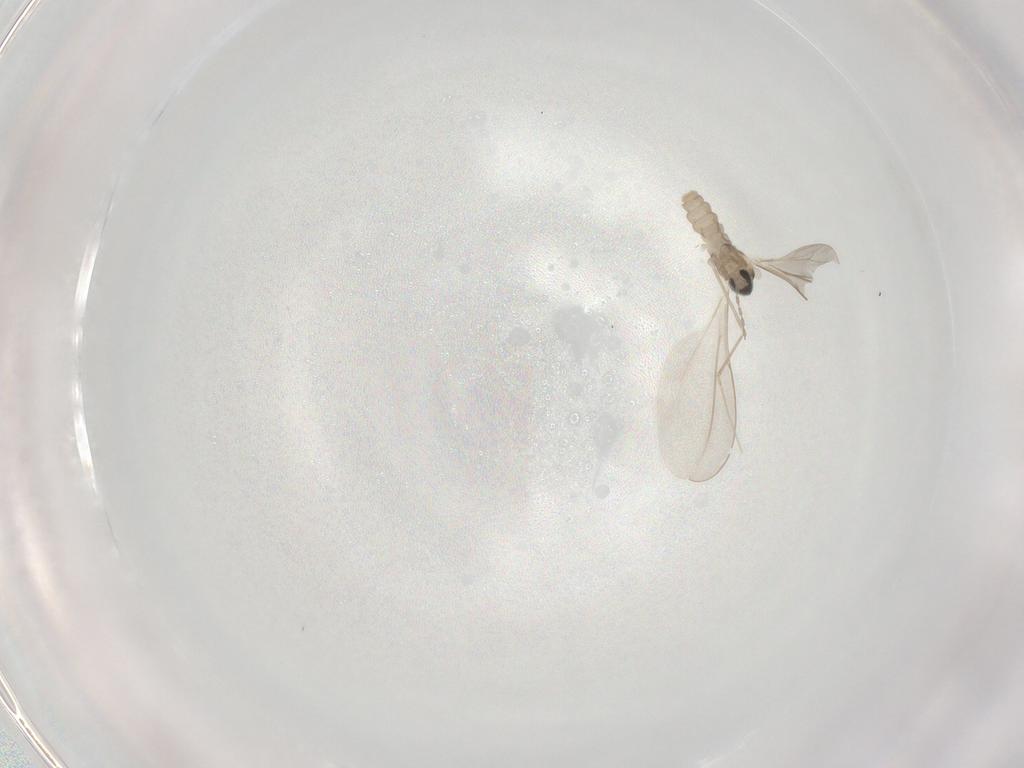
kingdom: Animalia
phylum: Arthropoda
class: Insecta
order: Diptera
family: Cecidomyiidae
